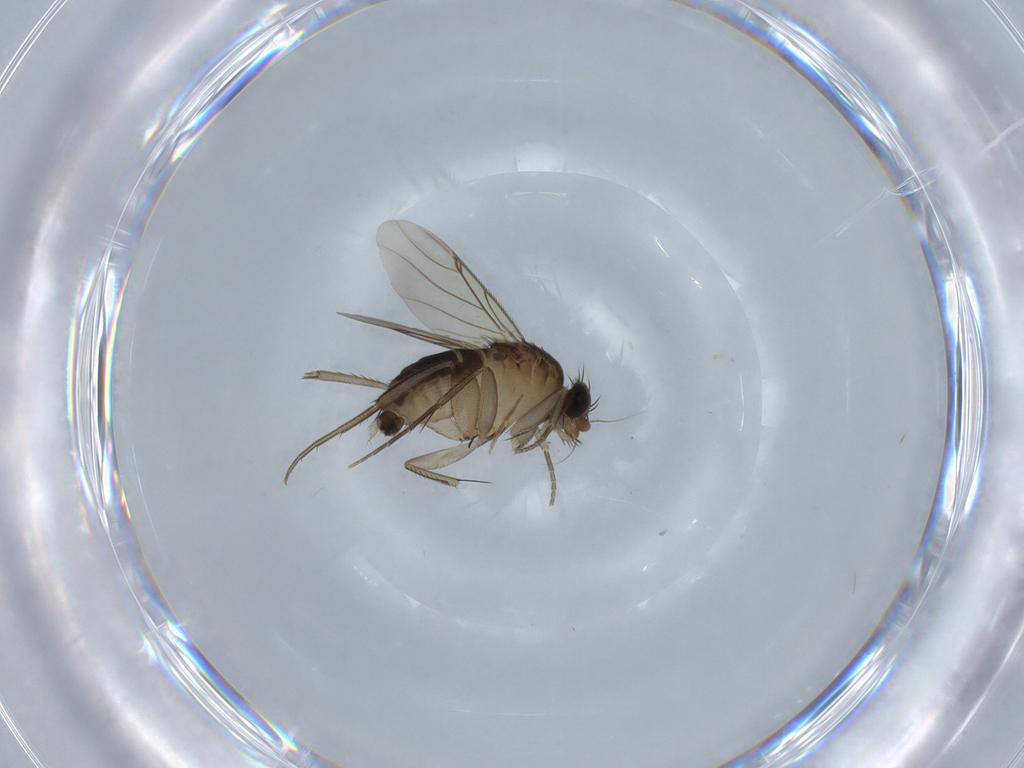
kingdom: Animalia
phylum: Arthropoda
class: Insecta
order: Diptera
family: Phoridae
